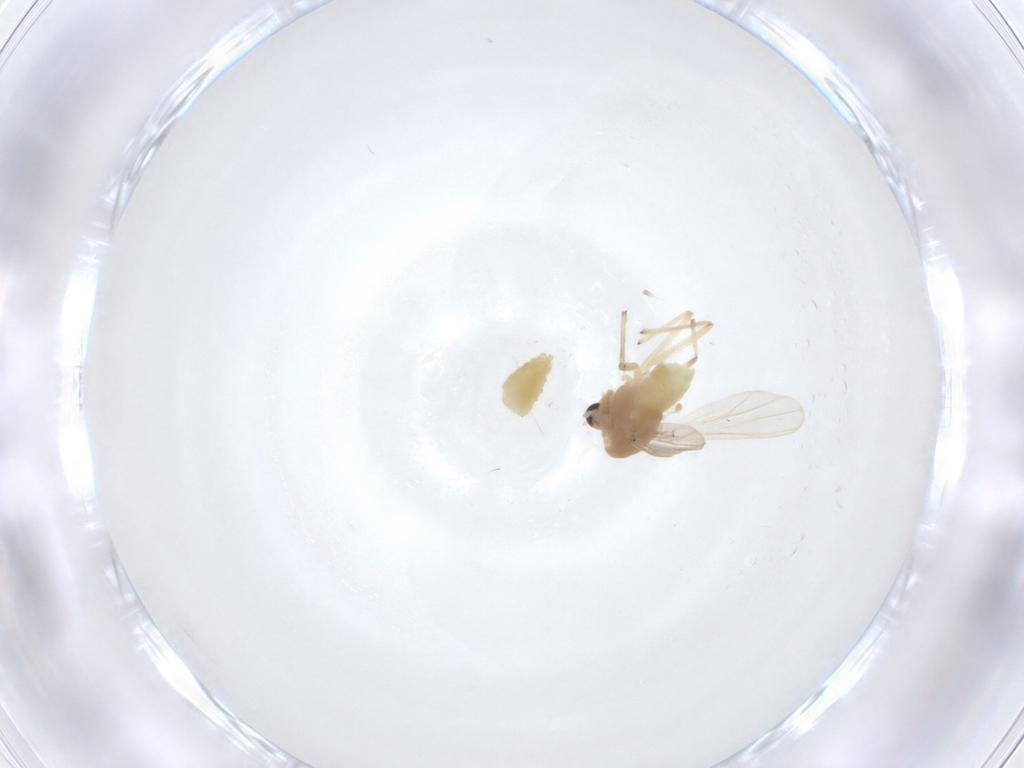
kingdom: Animalia
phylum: Arthropoda
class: Insecta
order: Diptera
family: Chironomidae
